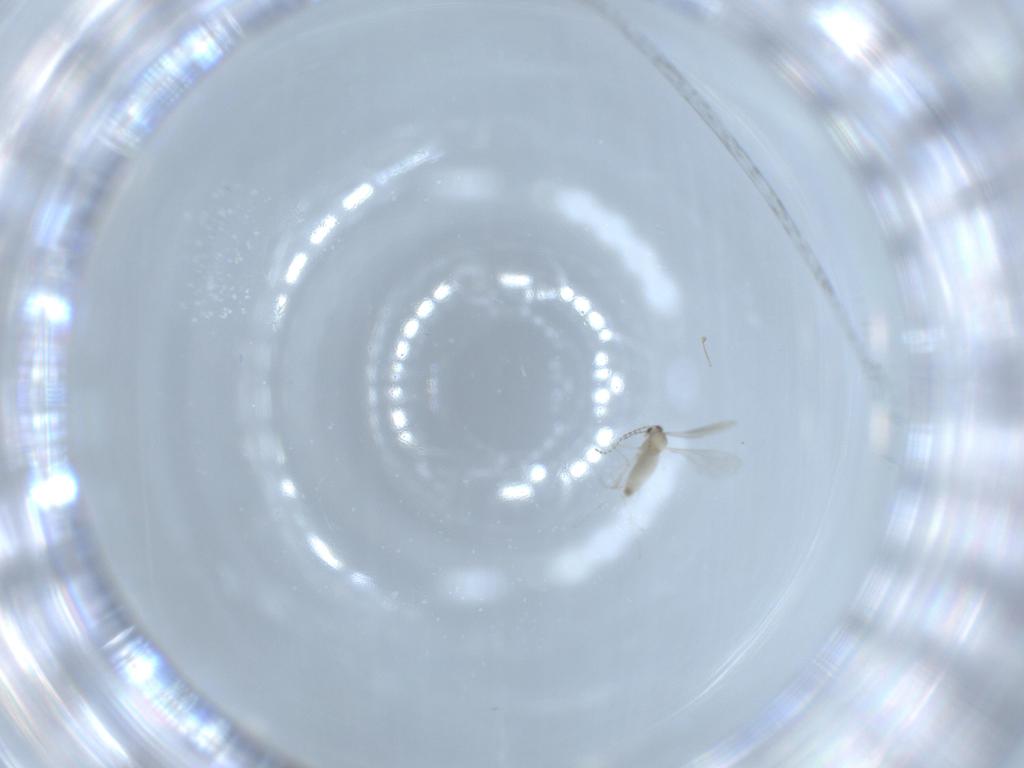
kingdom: Animalia
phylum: Arthropoda
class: Insecta
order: Diptera
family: Cecidomyiidae
